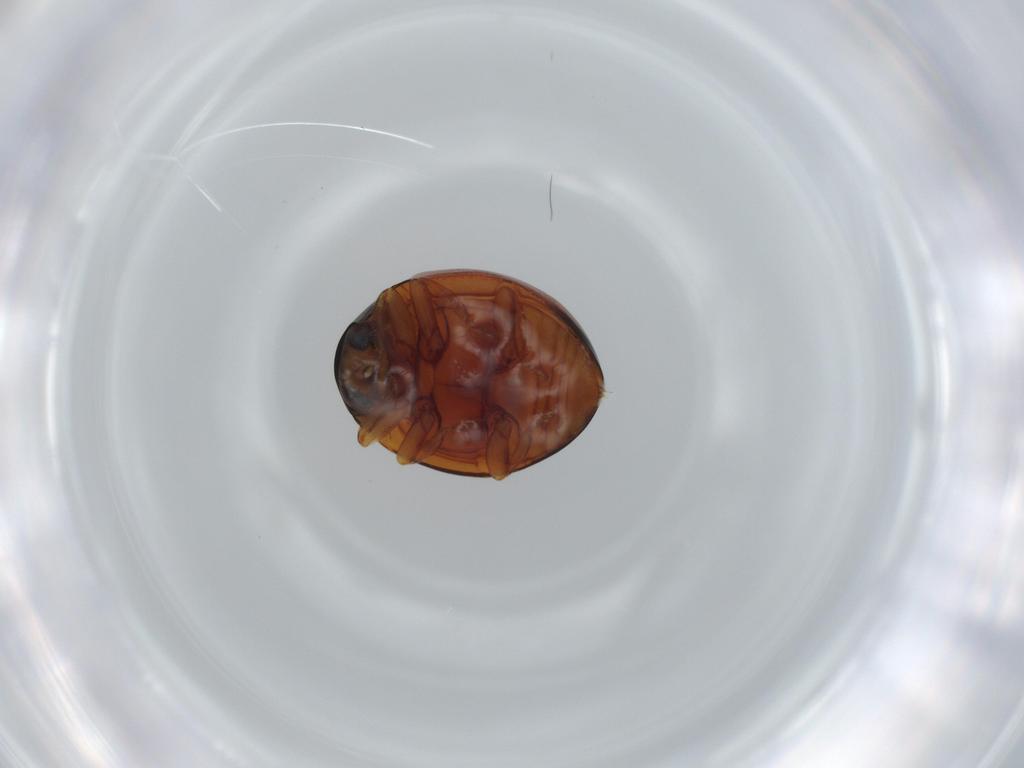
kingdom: Animalia
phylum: Arthropoda
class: Insecta
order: Coleoptera
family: Coccinellidae
